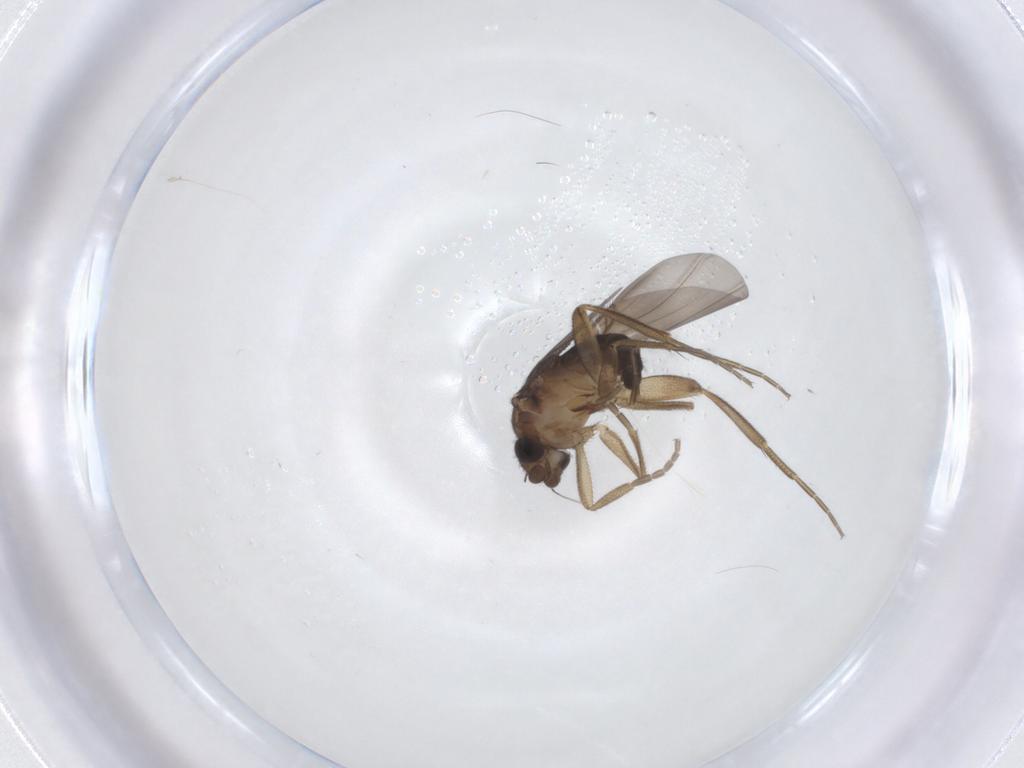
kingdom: Animalia
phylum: Arthropoda
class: Insecta
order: Diptera
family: Phoridae
